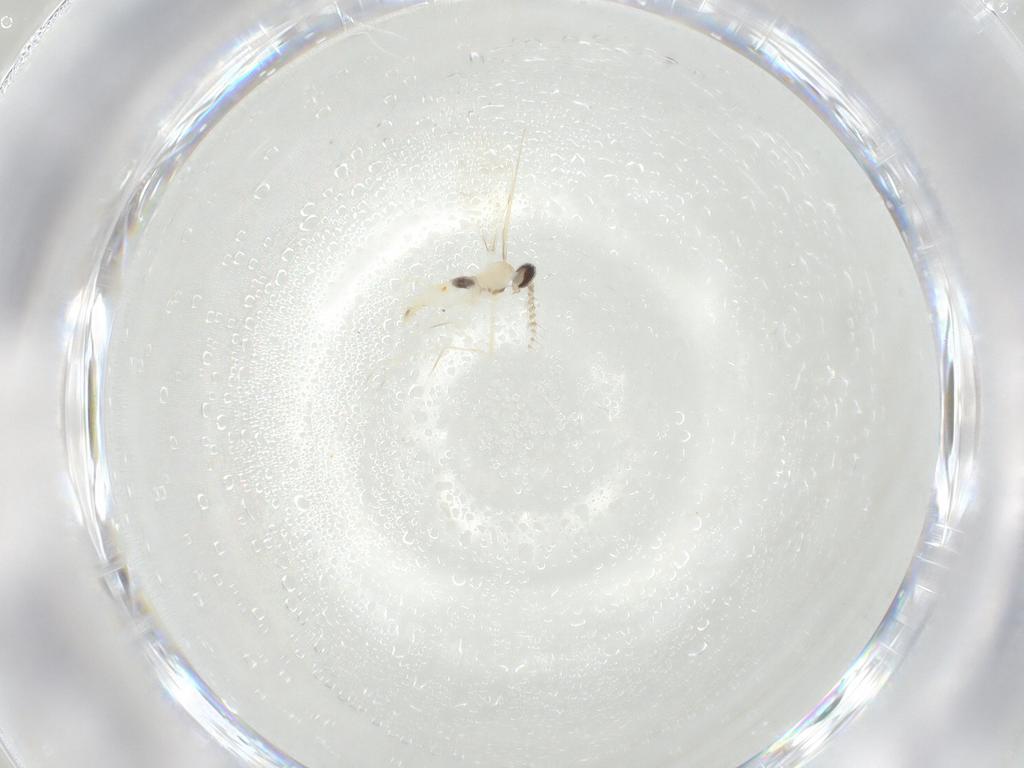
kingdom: Animalia
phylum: Arthropoda
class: Insecta
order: Diptera
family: Cecidomyiidae
